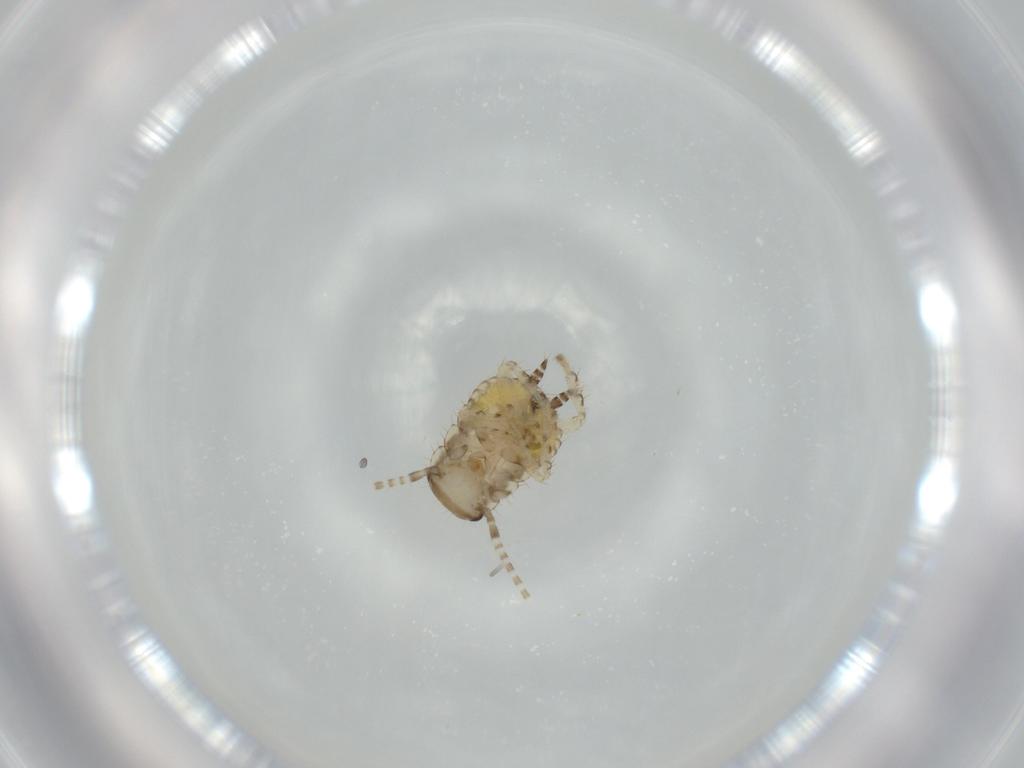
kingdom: Animalia
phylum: Arthropoda
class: Insecta
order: Blattodea
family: Ectobiidae
